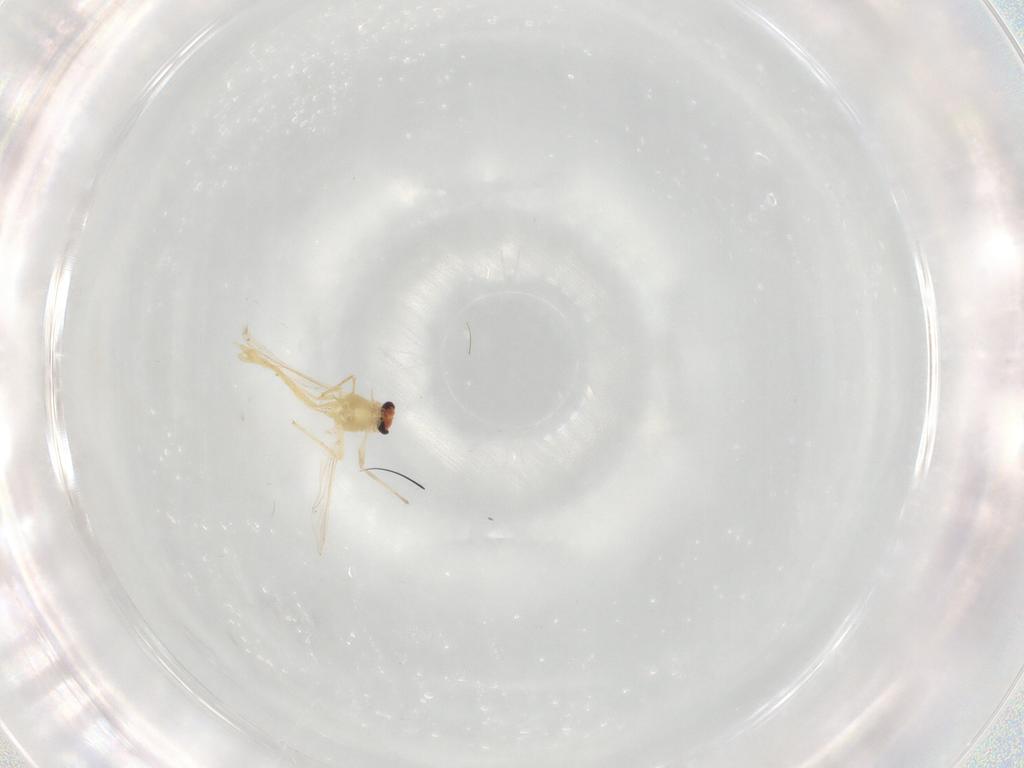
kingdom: Animalia
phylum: Arthropoda
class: Insecta
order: Diptera
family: Chironomidae
